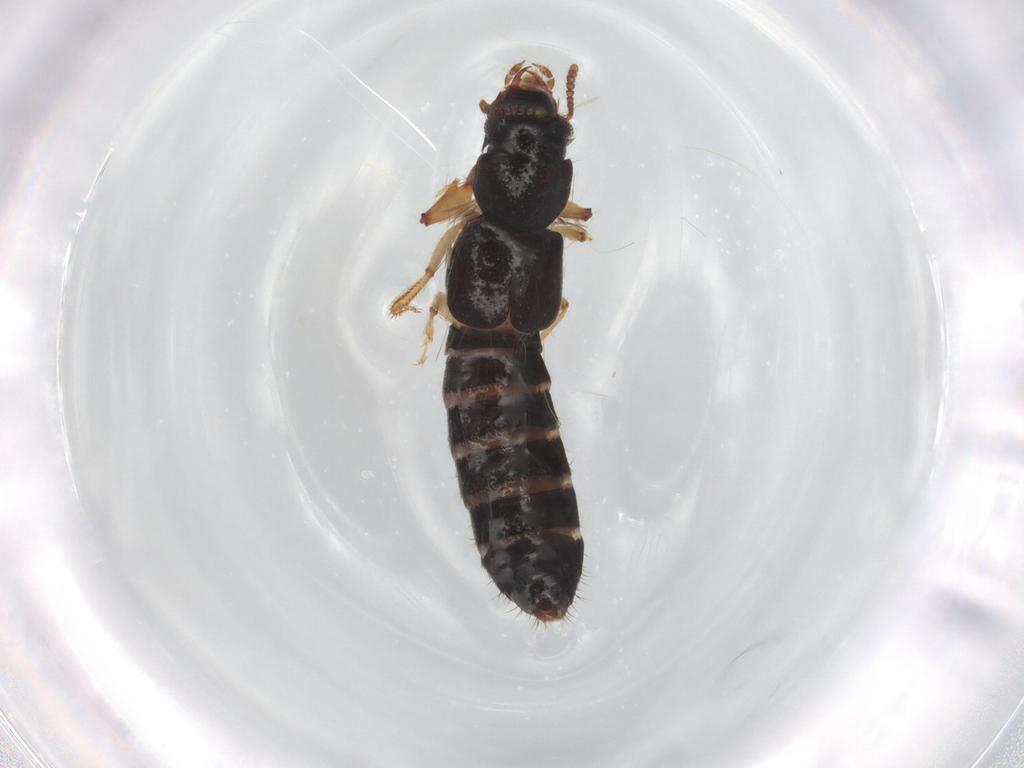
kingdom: Animalia
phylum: Arthropoda
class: Insecta
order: Coleoptera
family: Staphylinidae
